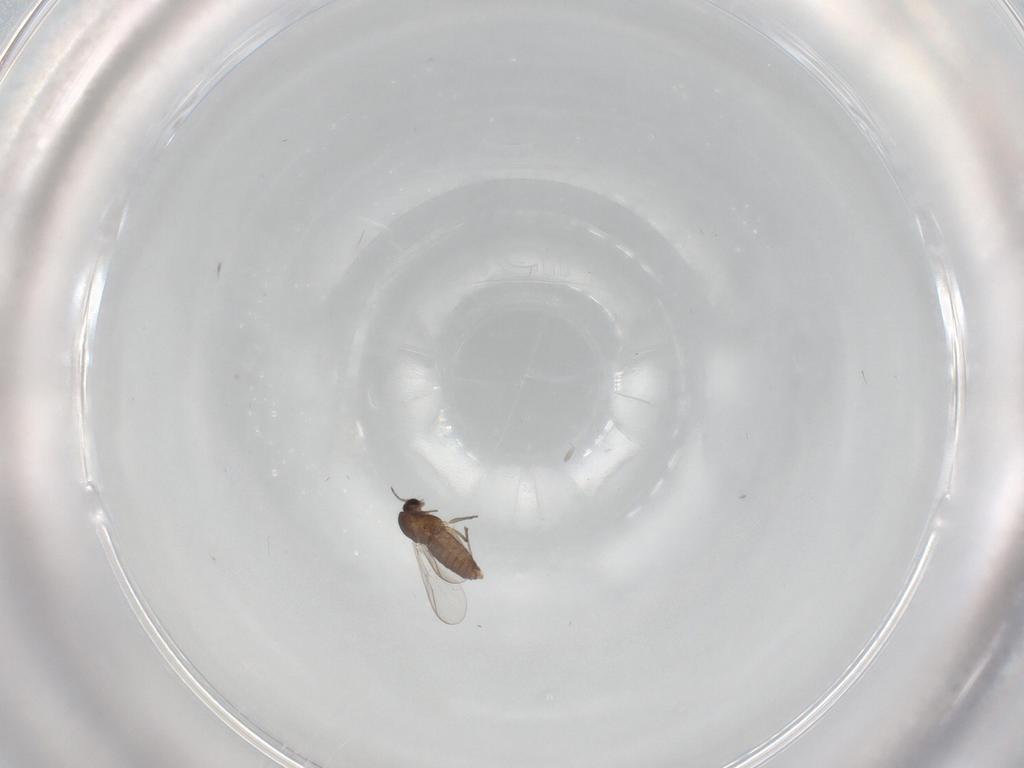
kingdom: Animalia
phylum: Arthropoda
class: Insecta
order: Diptera
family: Chironomidae
